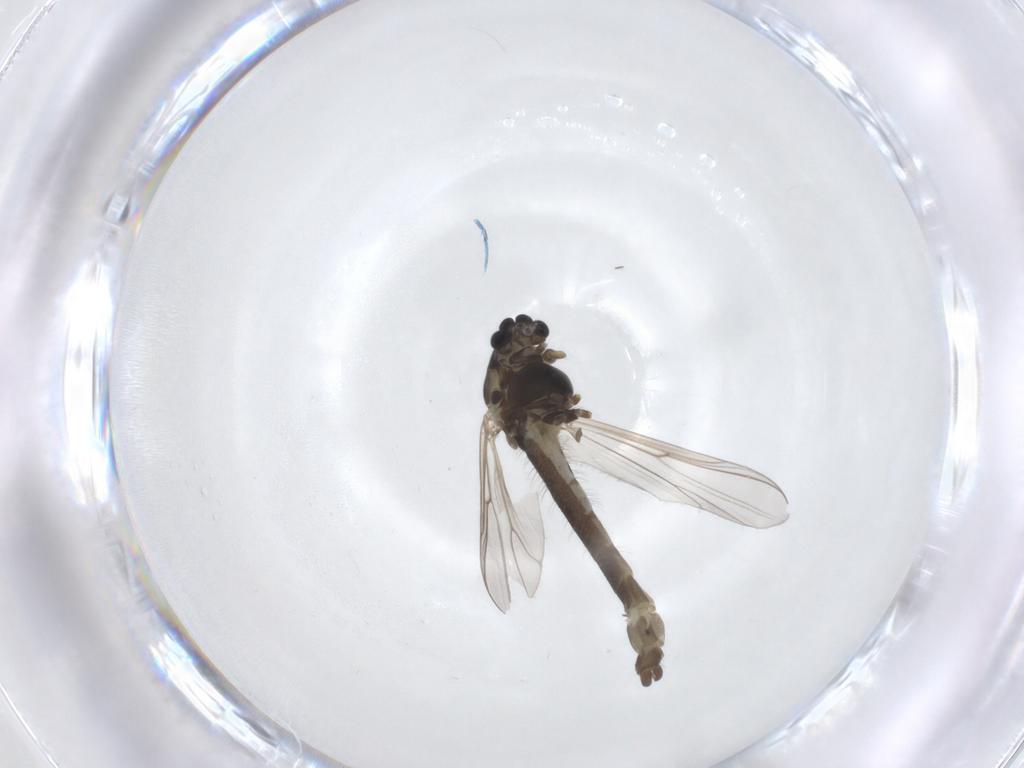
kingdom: Animalia
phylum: Arthropoda
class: Insecta
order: Diptera
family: Chironomidae
